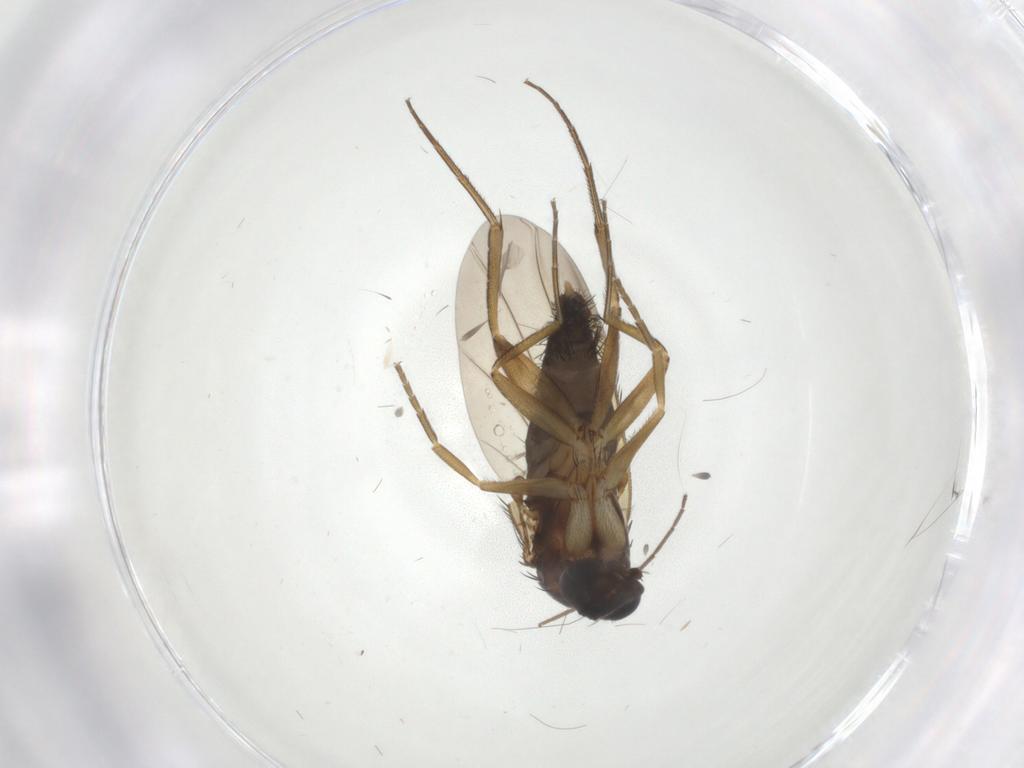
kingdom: Animalia
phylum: Arthropoda
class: Insecta
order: Diptera
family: Phoridae
